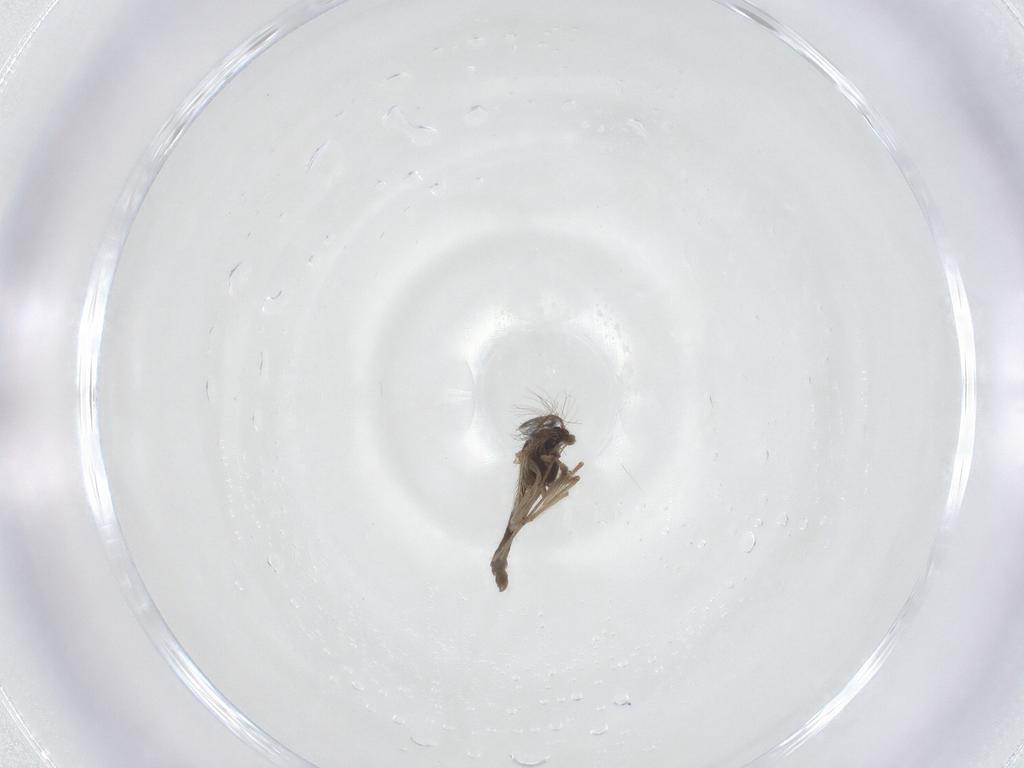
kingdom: Animalia
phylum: Arthropoda
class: Insecta
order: Diptera
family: Chironomidae
